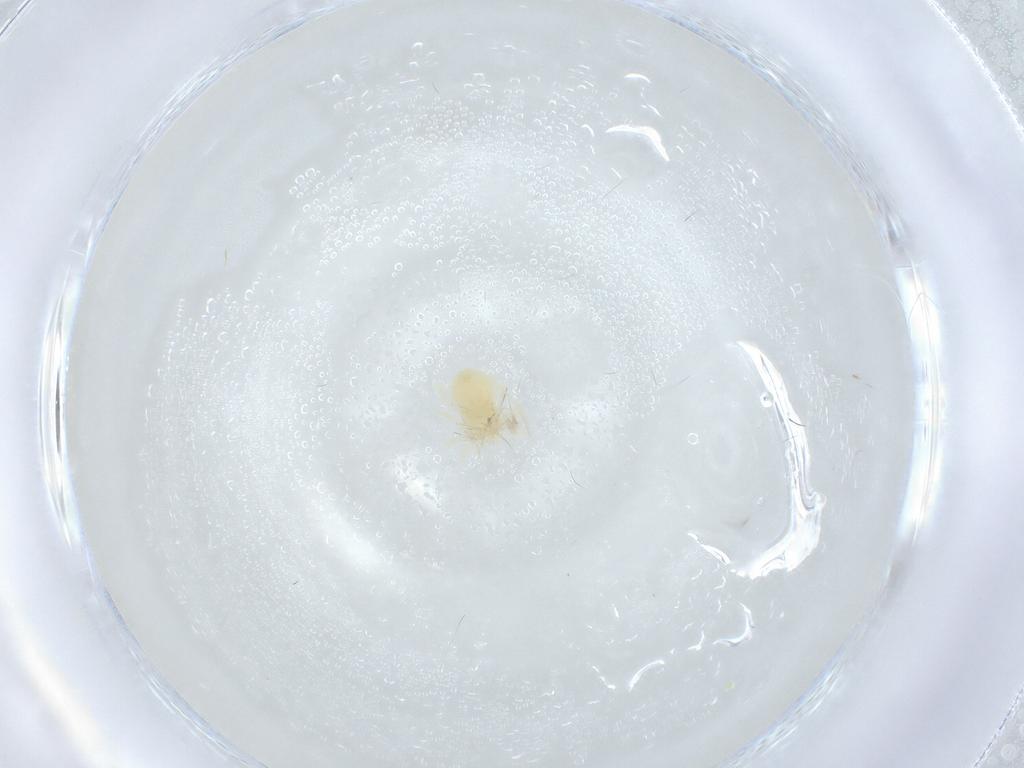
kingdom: Animalia
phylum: Arthropoda
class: Arachnida
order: Trombidiformes
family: Anystidae
